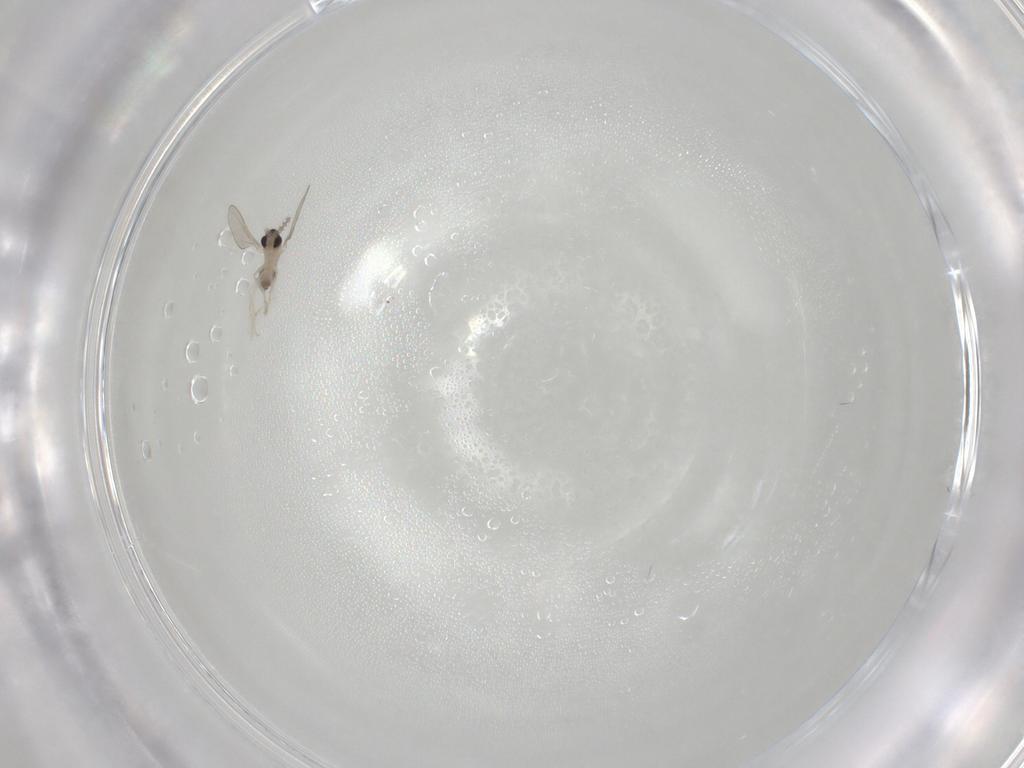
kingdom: Animalia
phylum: Arthropoda
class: Insecta
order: Diptera
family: Cecidomyiidae
